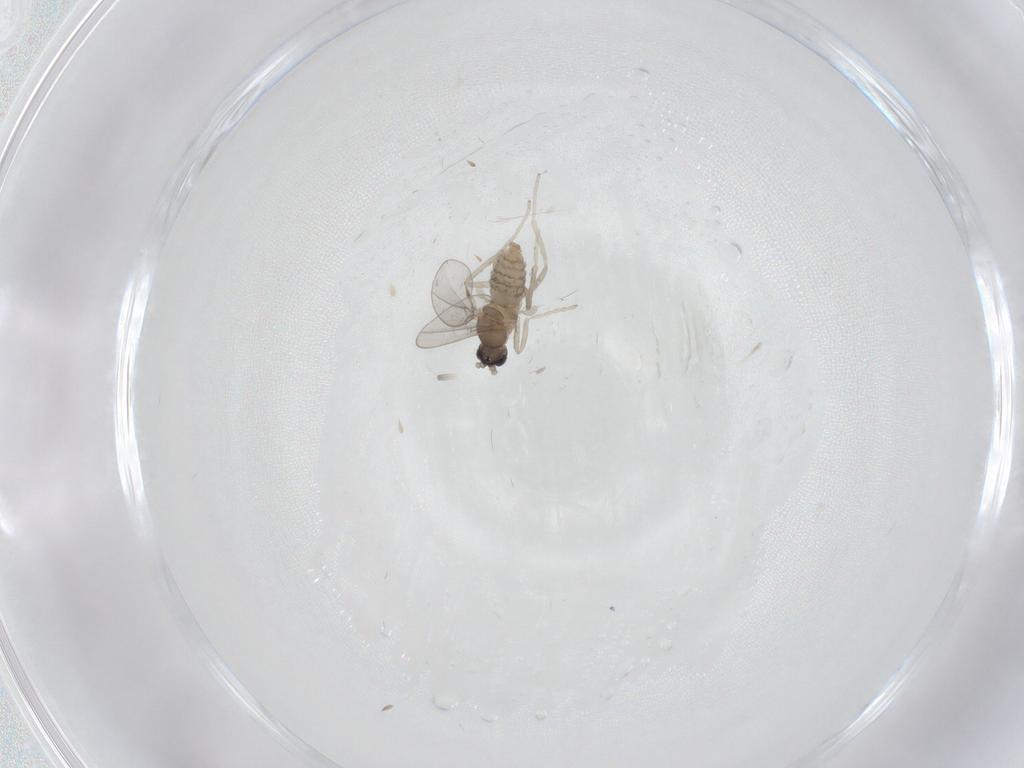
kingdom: Animalia
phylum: Arthropoda
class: Insecta
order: Diptera
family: Cecidomyiidae
